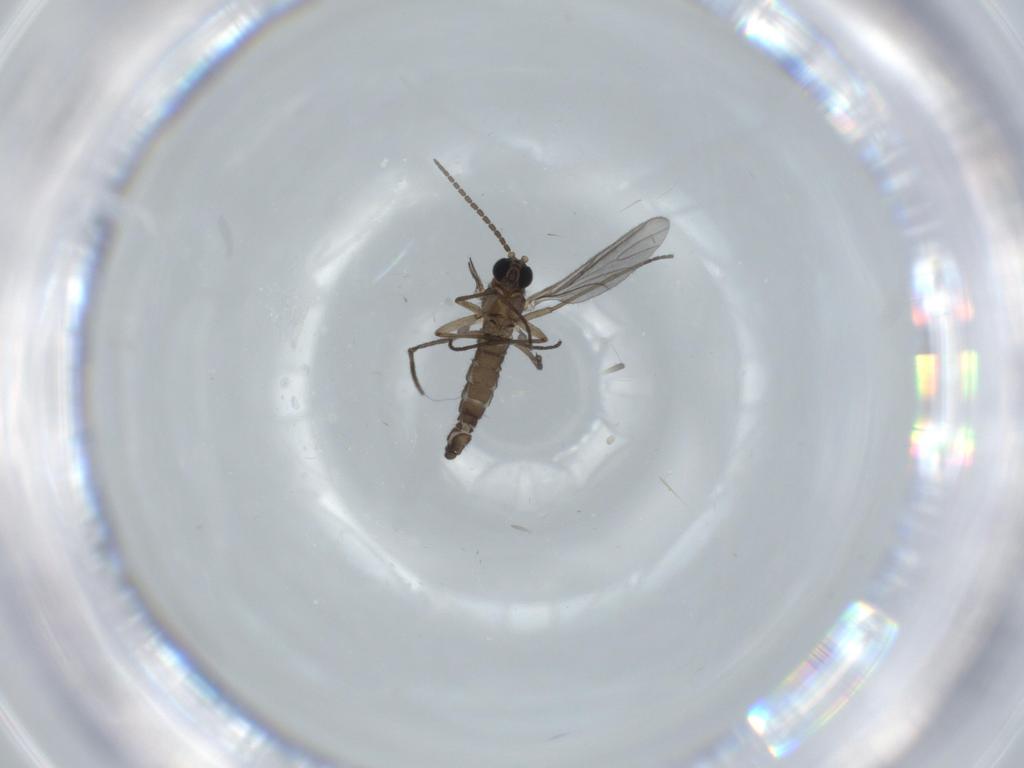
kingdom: Animalia
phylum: Arthropoda
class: Insecta
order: Diptera
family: Sciaridae
